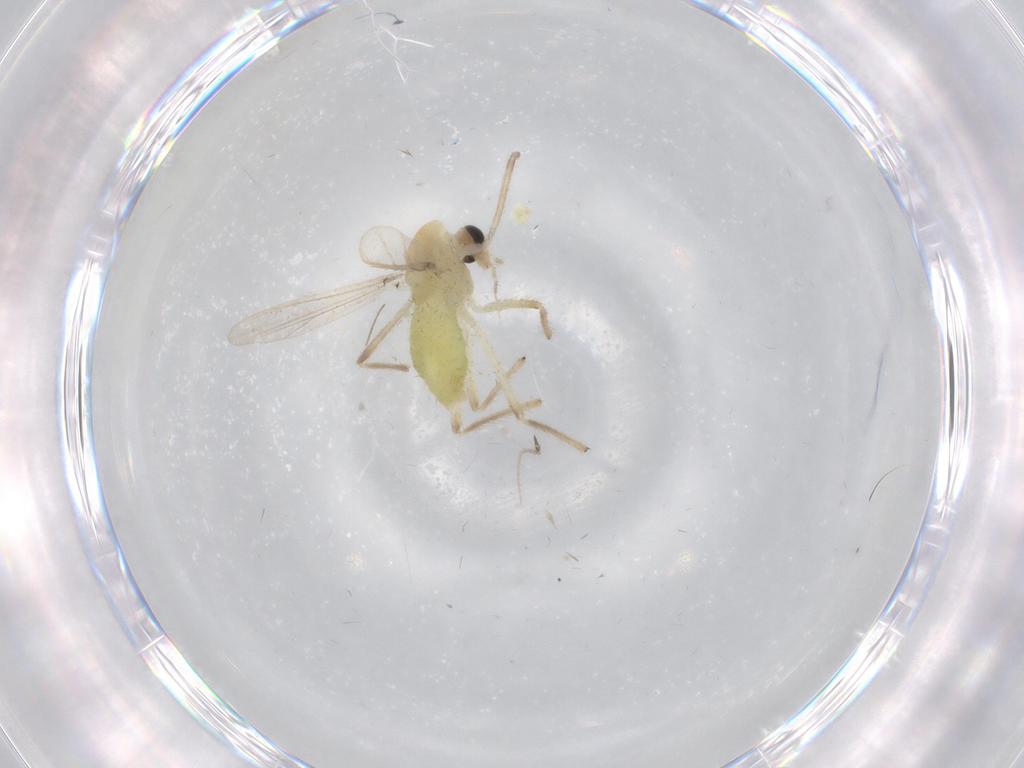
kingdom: Animalia
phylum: Arthropoda
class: Insecta
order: Diptera
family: Chironomidae
